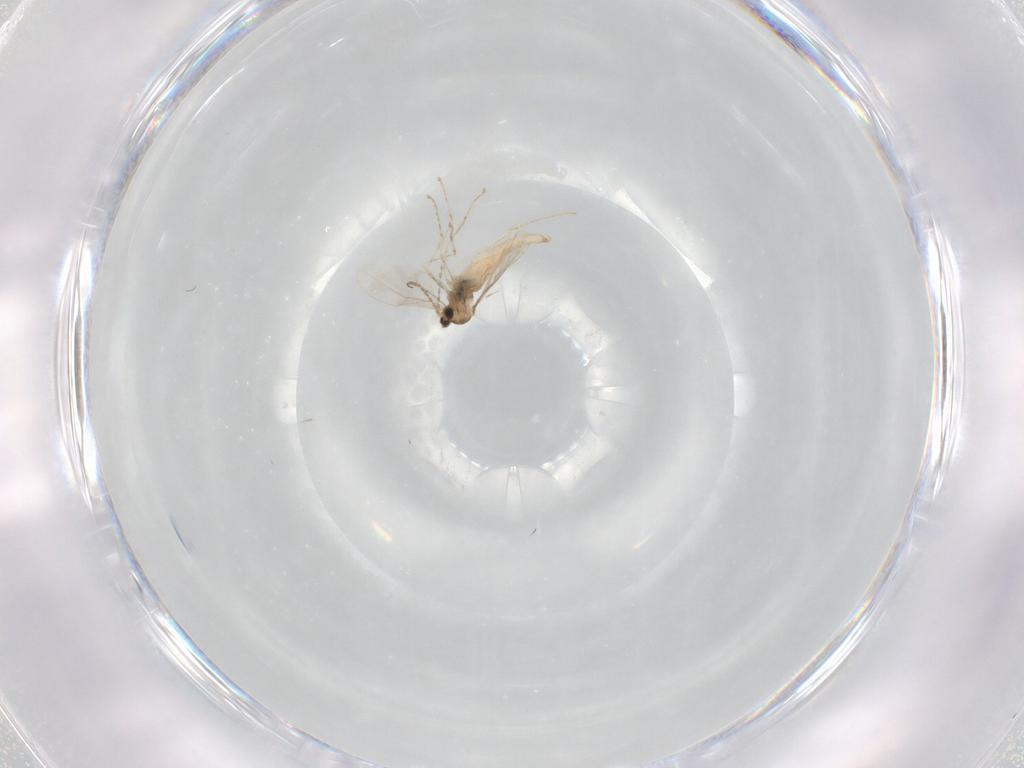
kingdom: Animalia
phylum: Arthropoda
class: Insecta
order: Diptera
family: Cecidomyiidae
